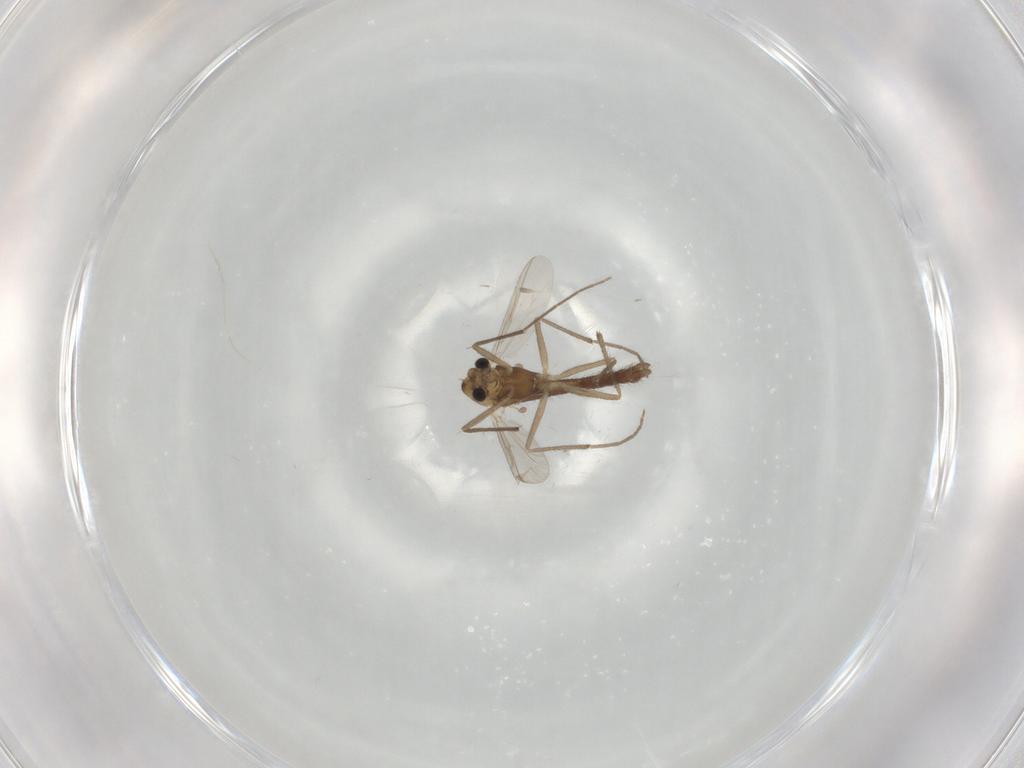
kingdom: Animalia
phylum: Arthropoda
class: Insecta
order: Diptera
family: Chironomidae
